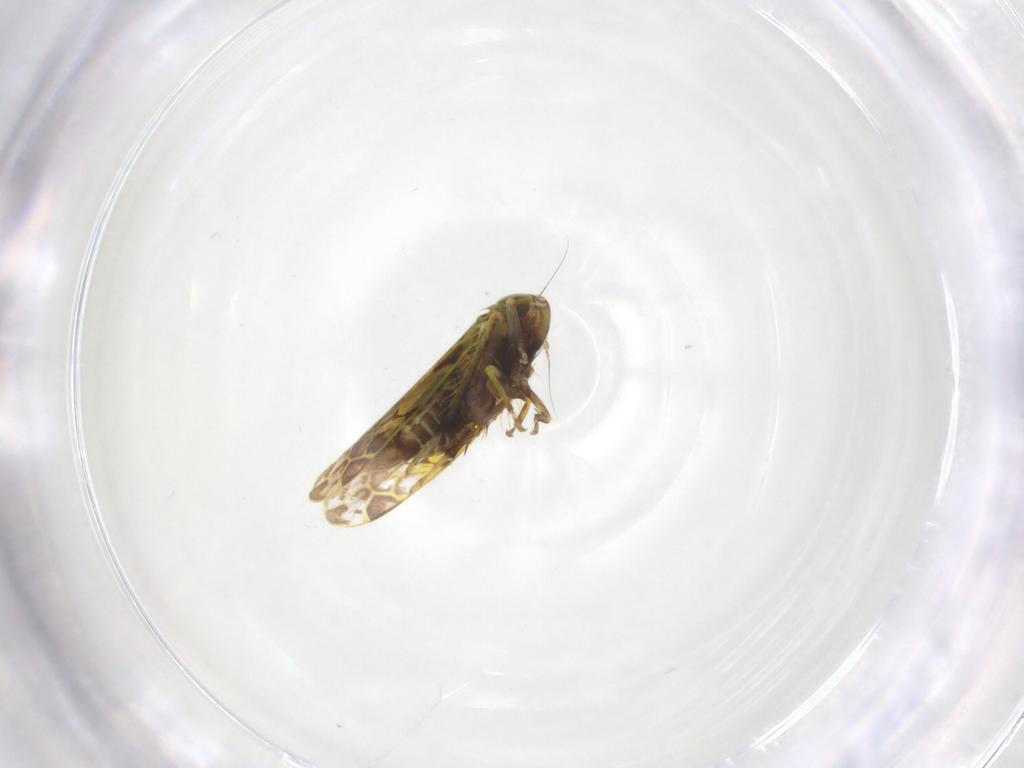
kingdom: Animalia
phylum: Arthropoda
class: Insecta
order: Hemiptera
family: Cicadellidae
